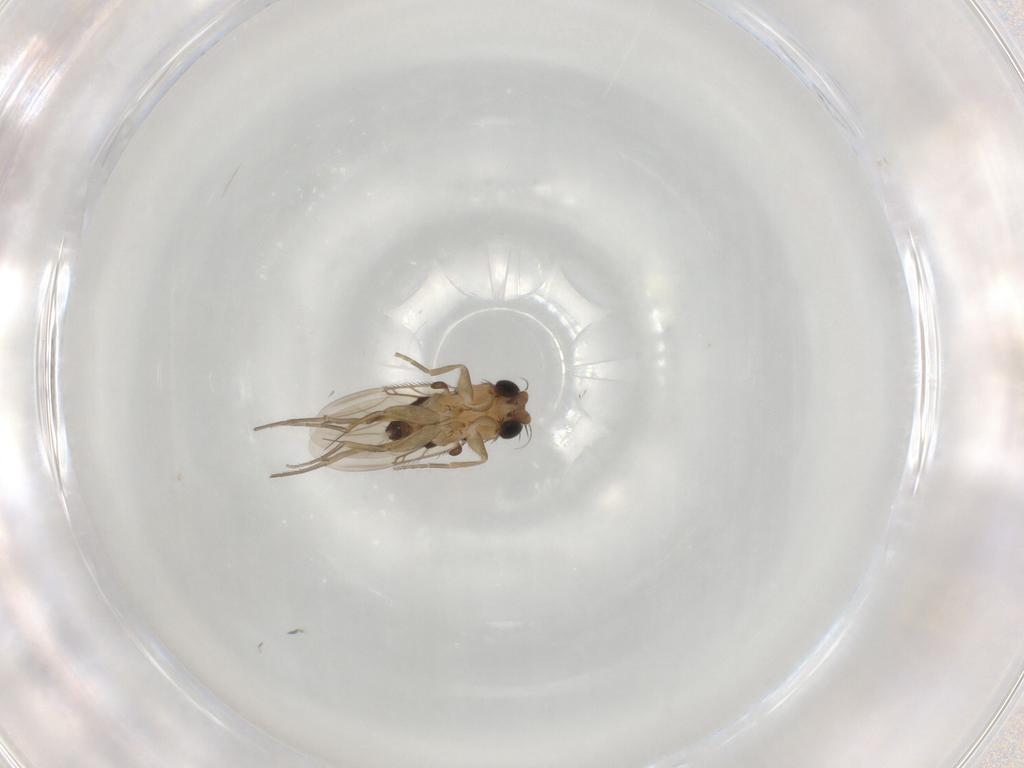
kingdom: Animalia
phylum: Arthropoda
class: Insecta
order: Diptera
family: Phoridae
